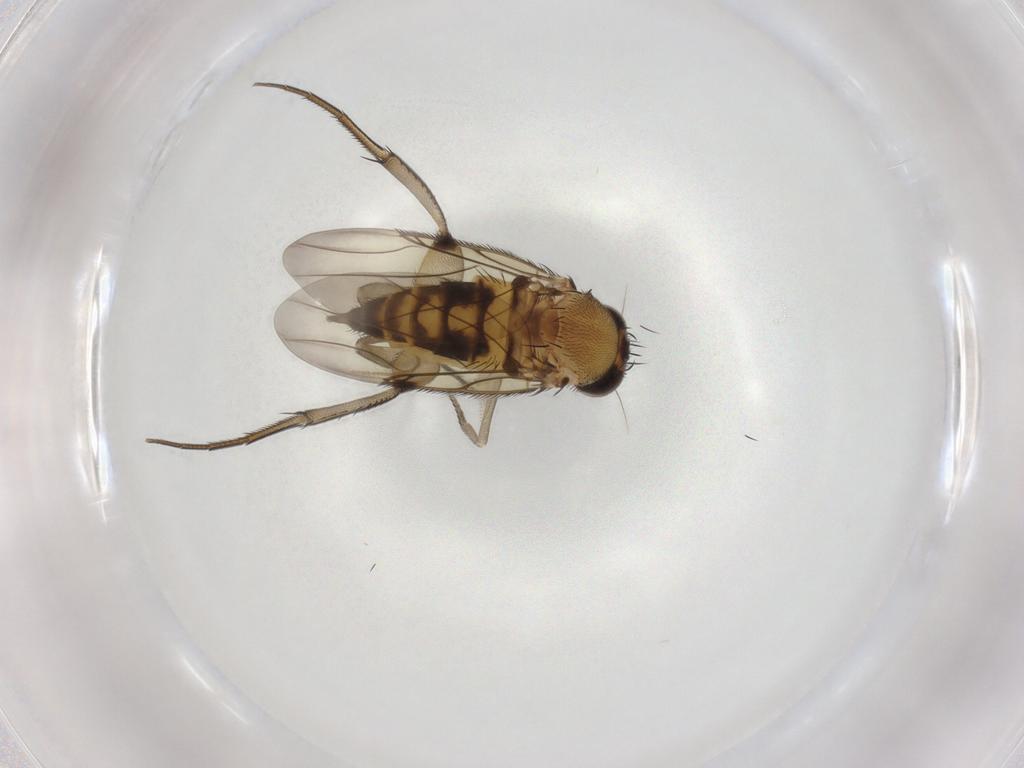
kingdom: Animalia
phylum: Arthropoda
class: Insecta
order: Diptera
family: Phoridae
